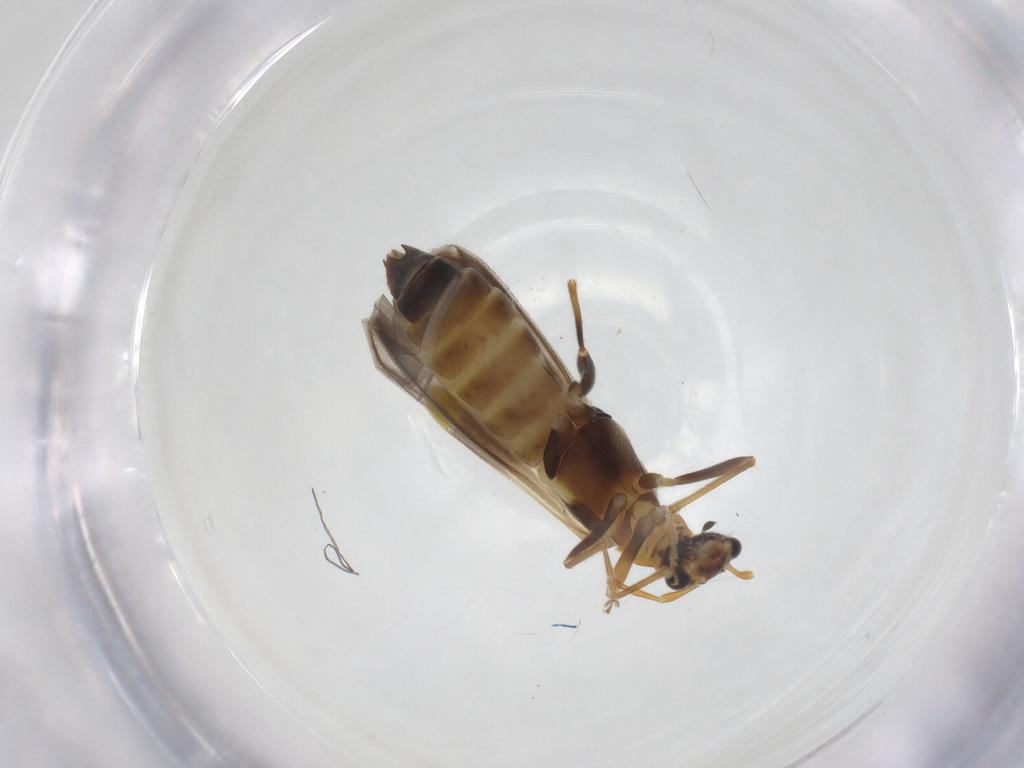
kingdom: Animalia
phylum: Arthropoda
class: Insecta
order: Coleoptera
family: Cantharidae
